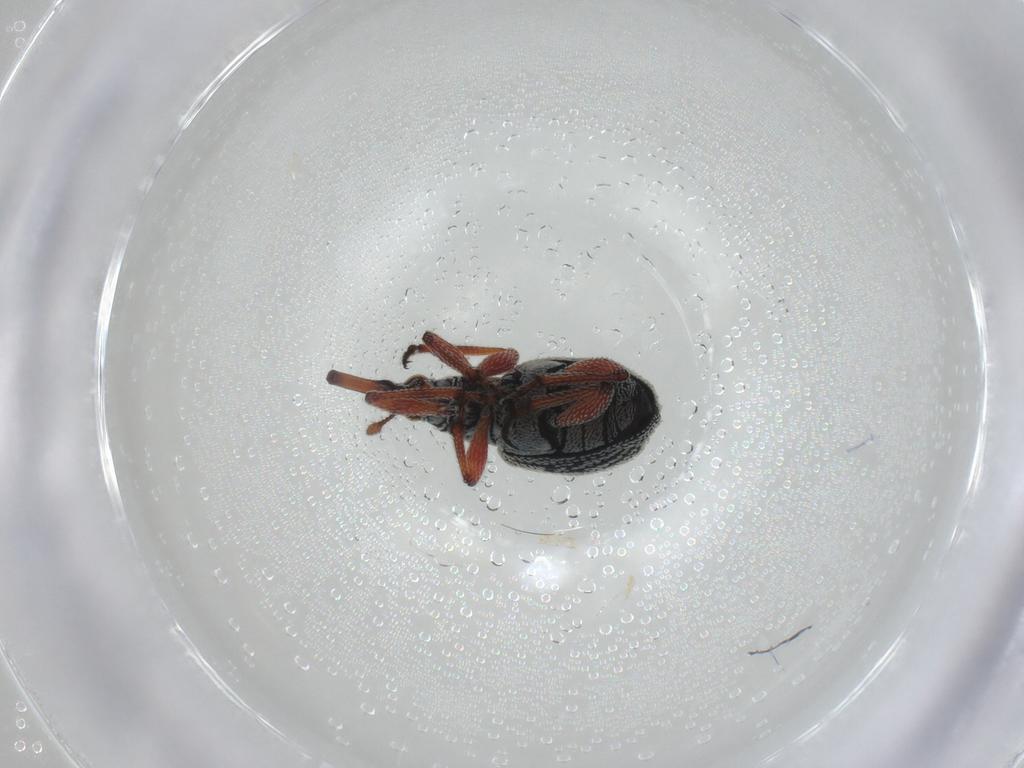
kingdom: Animalia
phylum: Arthropoda
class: Insecta
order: Coleoptera
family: Brentidae
